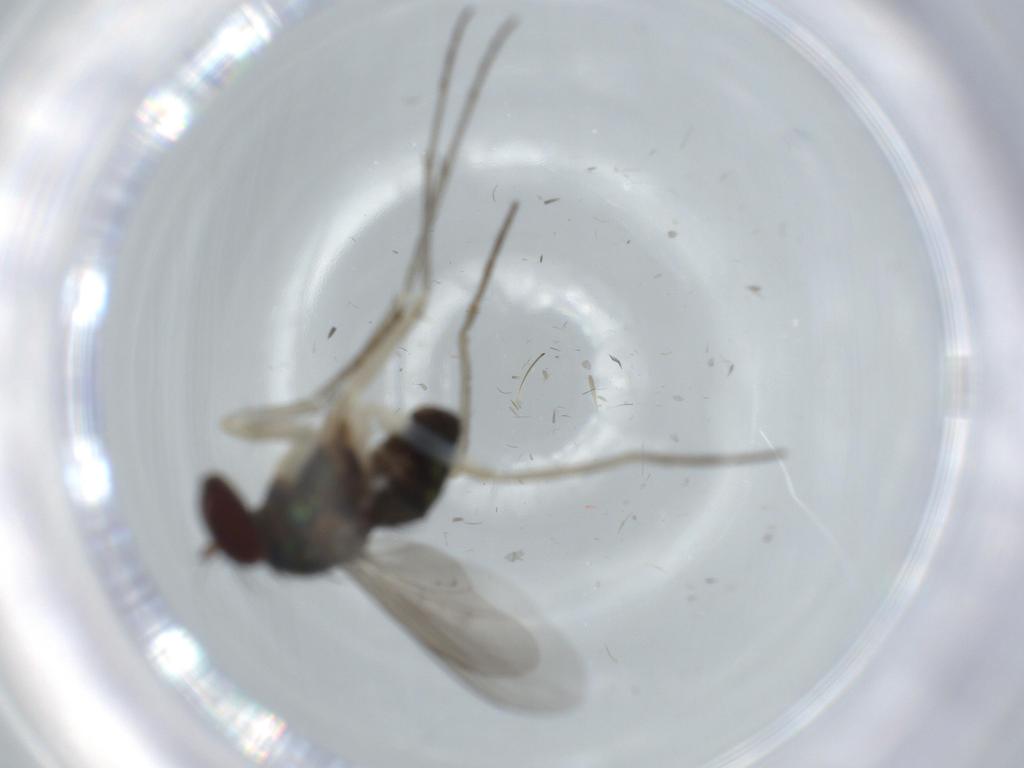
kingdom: Animalia
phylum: Arthropoda
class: Insecta
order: Diptera
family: Dolichopodidae
